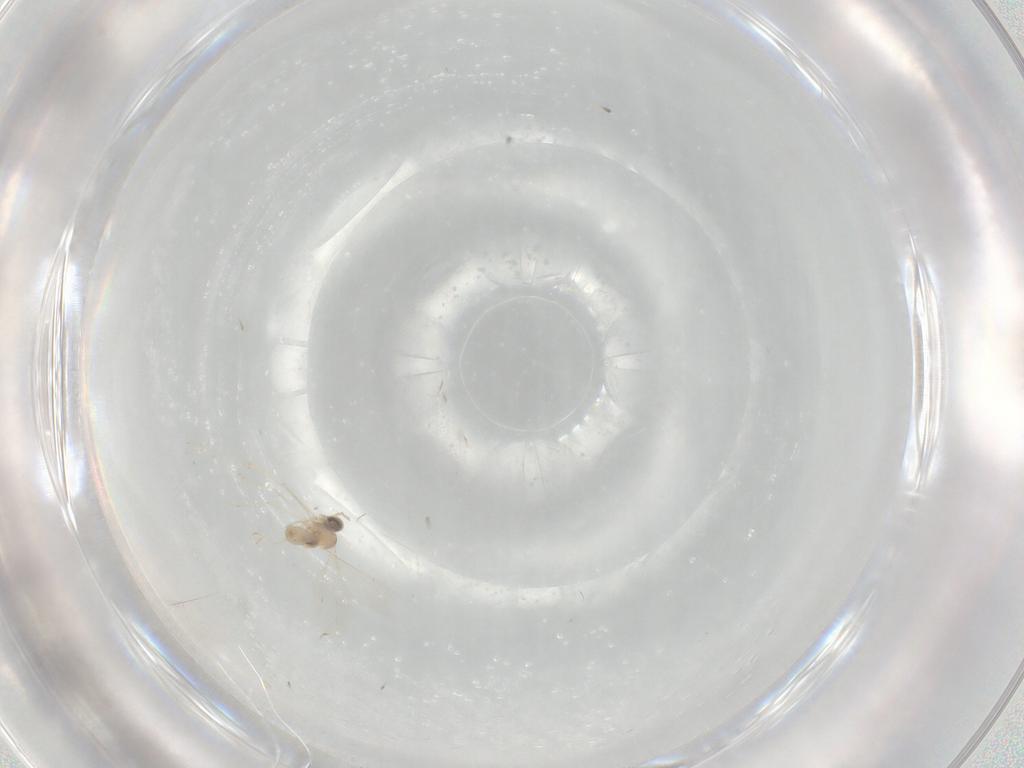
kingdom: Animalia
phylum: Arthropoda
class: Insecta
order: Diptera
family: Cecidomyiidae
